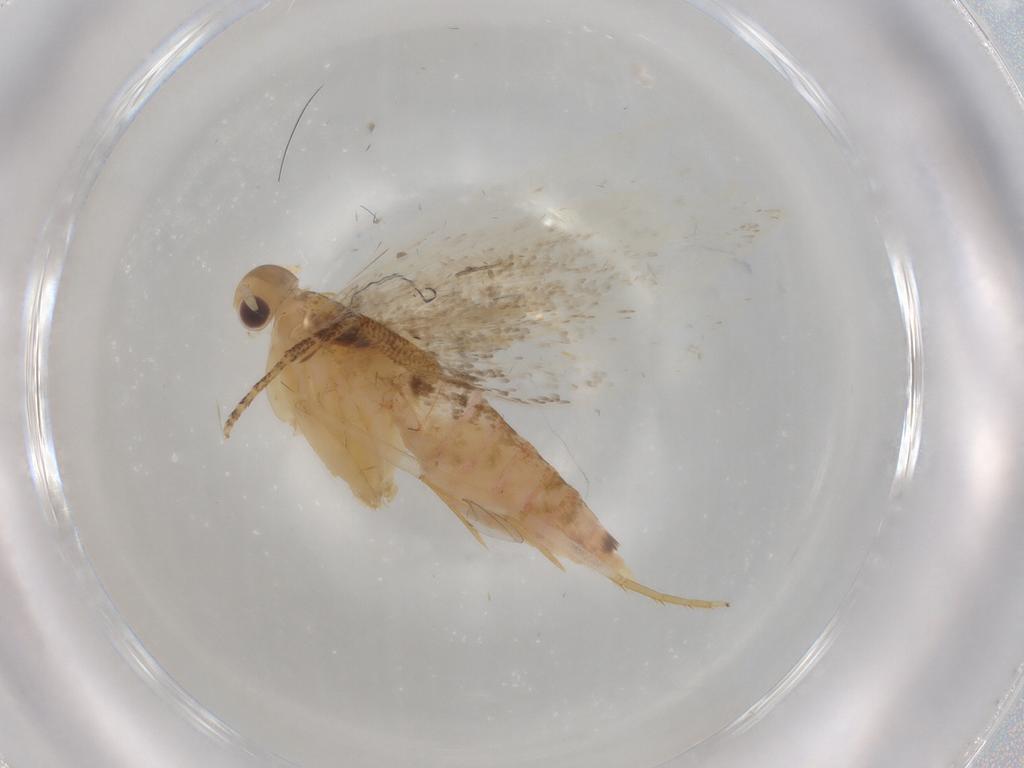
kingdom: Animalia
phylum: Arthropoda
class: Insecta
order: Lepidoptera
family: Gelechiidae
